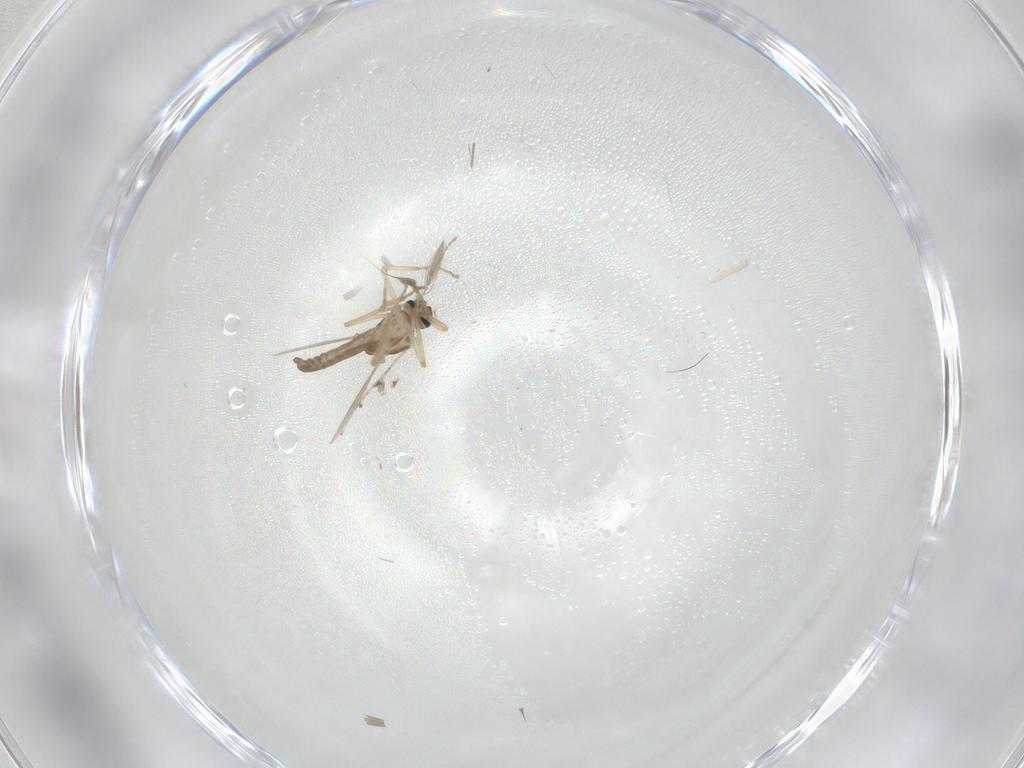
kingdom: Animalia
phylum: Arthropoda
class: Insecta
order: Diptera
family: Ceratopogonidae
